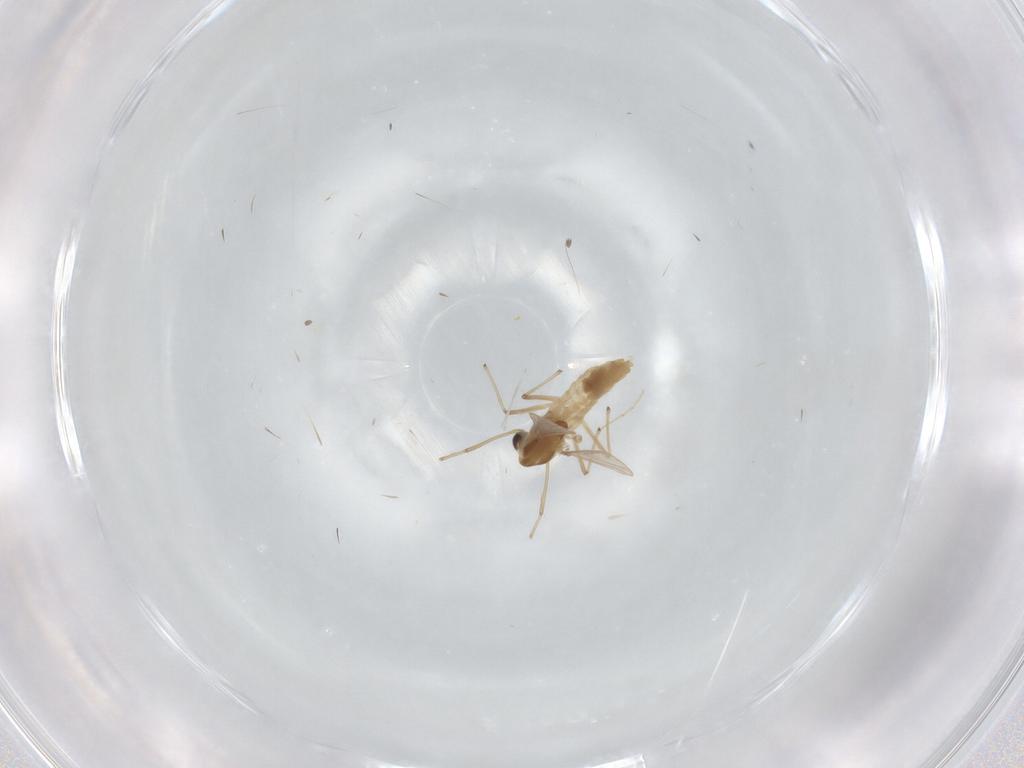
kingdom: Animalia
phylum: Arthropoda
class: Insecta
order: Diptera
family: Chironomidae
